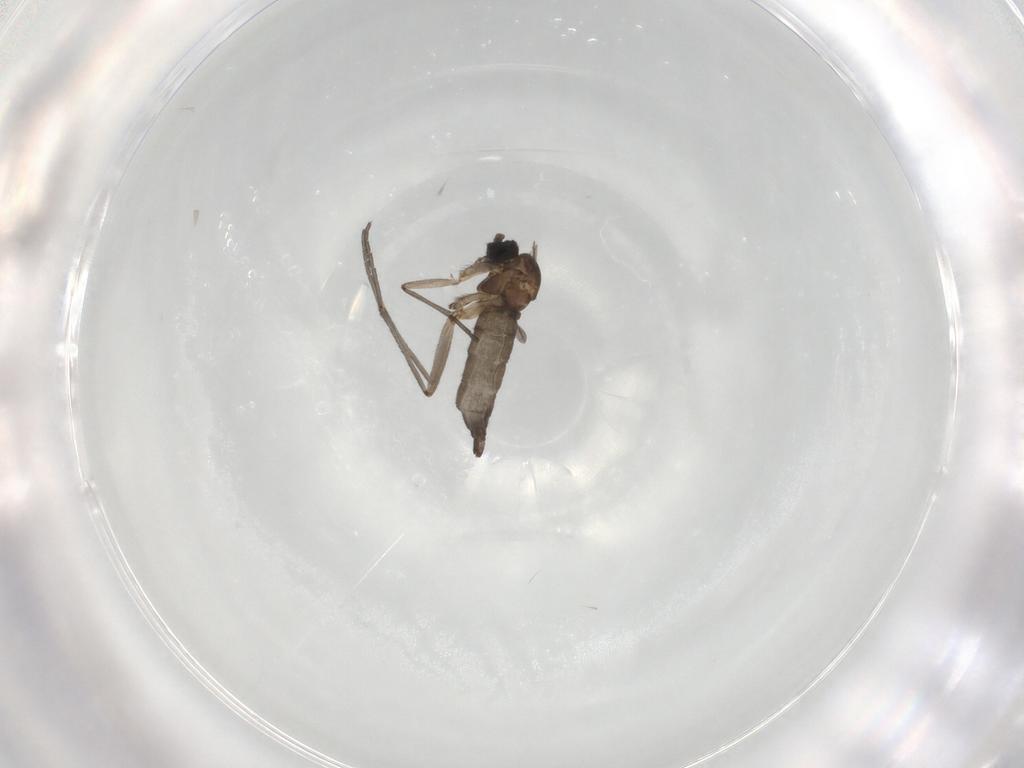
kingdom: Animalia
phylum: Arthropoda
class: Insecta
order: Diptera
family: Sciaridae
